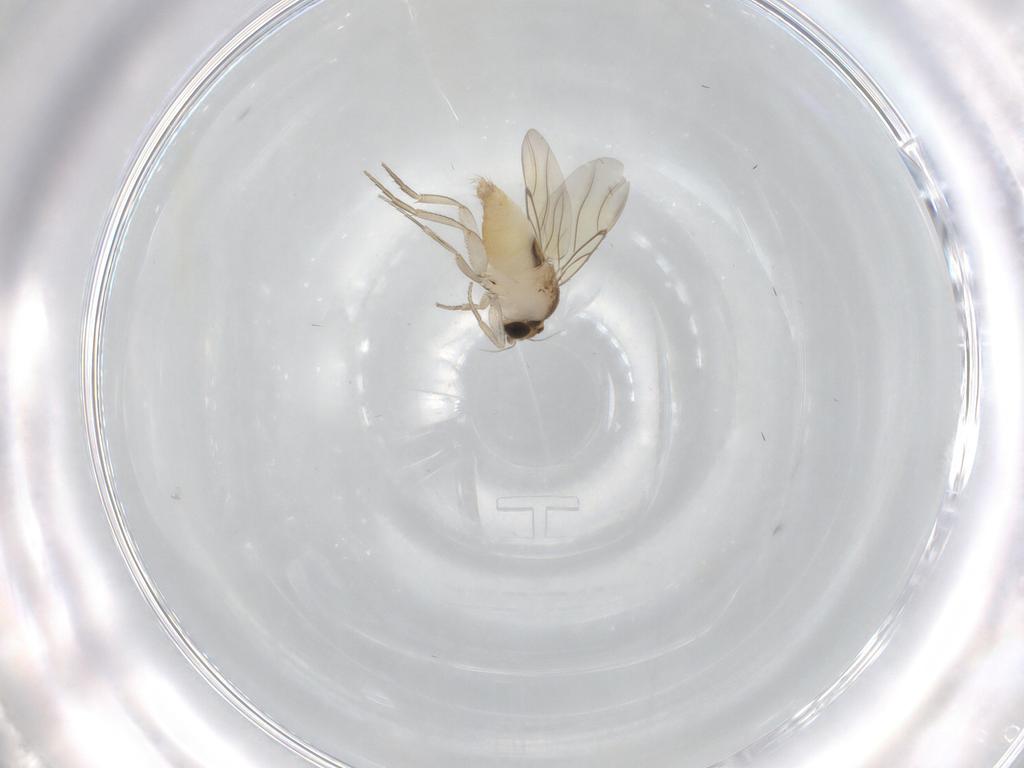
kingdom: Animalia
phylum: Arthropoda
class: Insecta
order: Diptera
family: Phoridae
